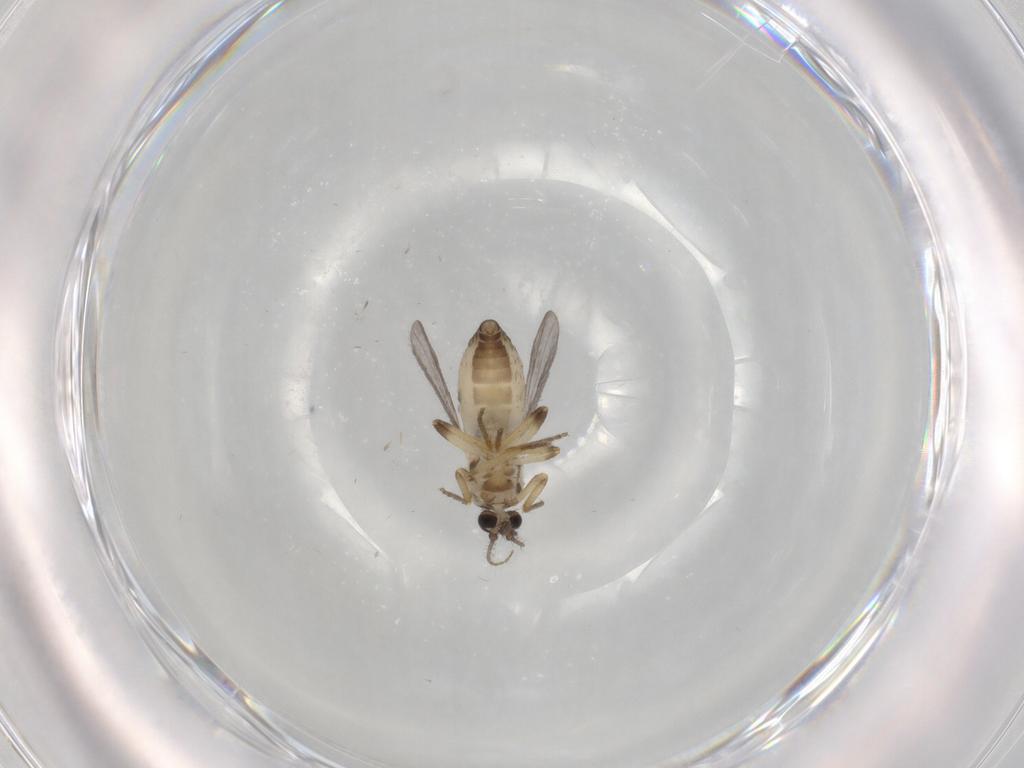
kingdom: Animalia
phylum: Arthropoda
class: Insecta
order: Diptera
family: Ceratopogonidae
